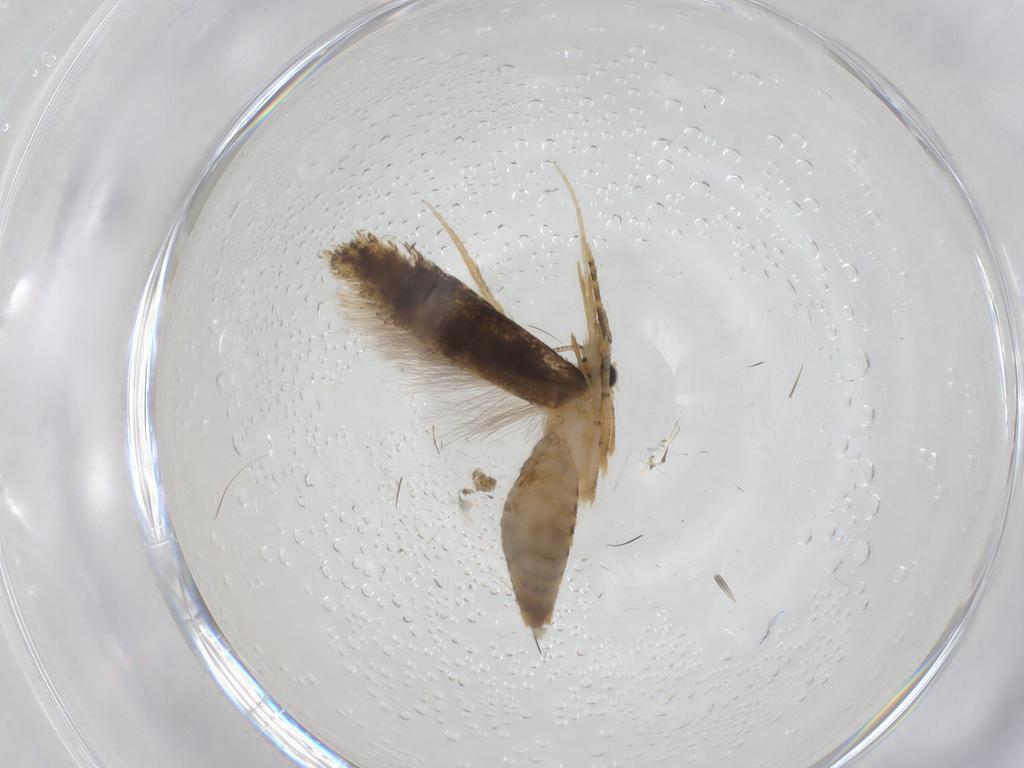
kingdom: Animalia
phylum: Arthropoda
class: Insecta
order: Lepidoptera
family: Tineidae
